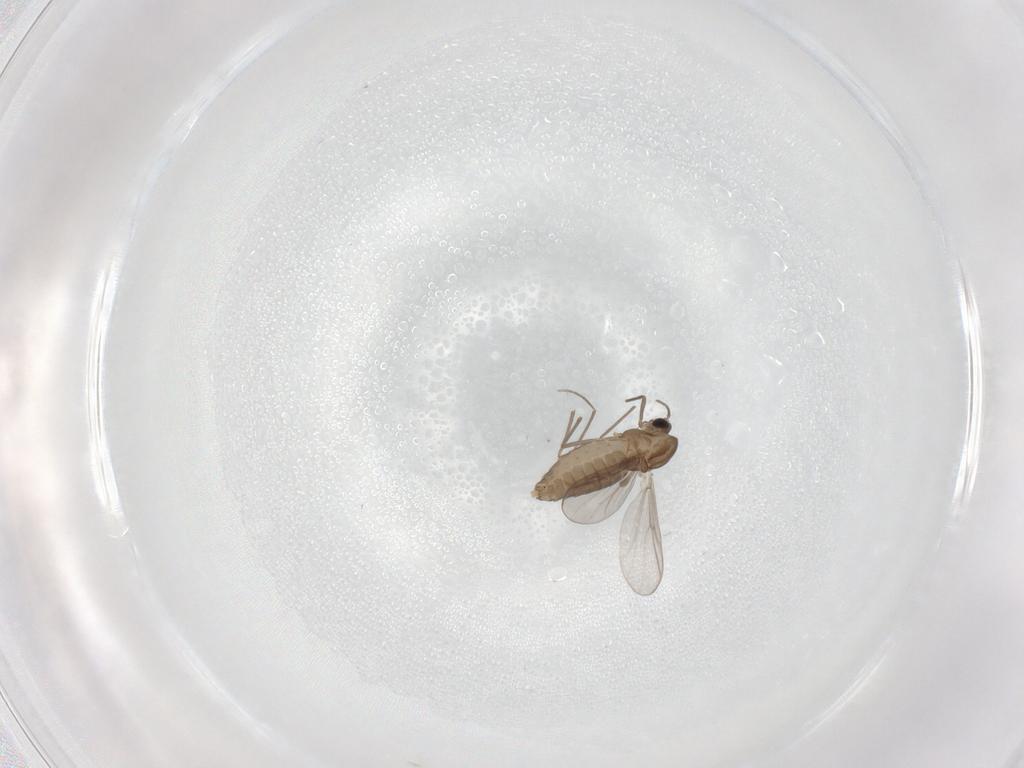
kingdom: Animalia
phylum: Arthropoda
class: Insecta
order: Diptera
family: Chironomidae
